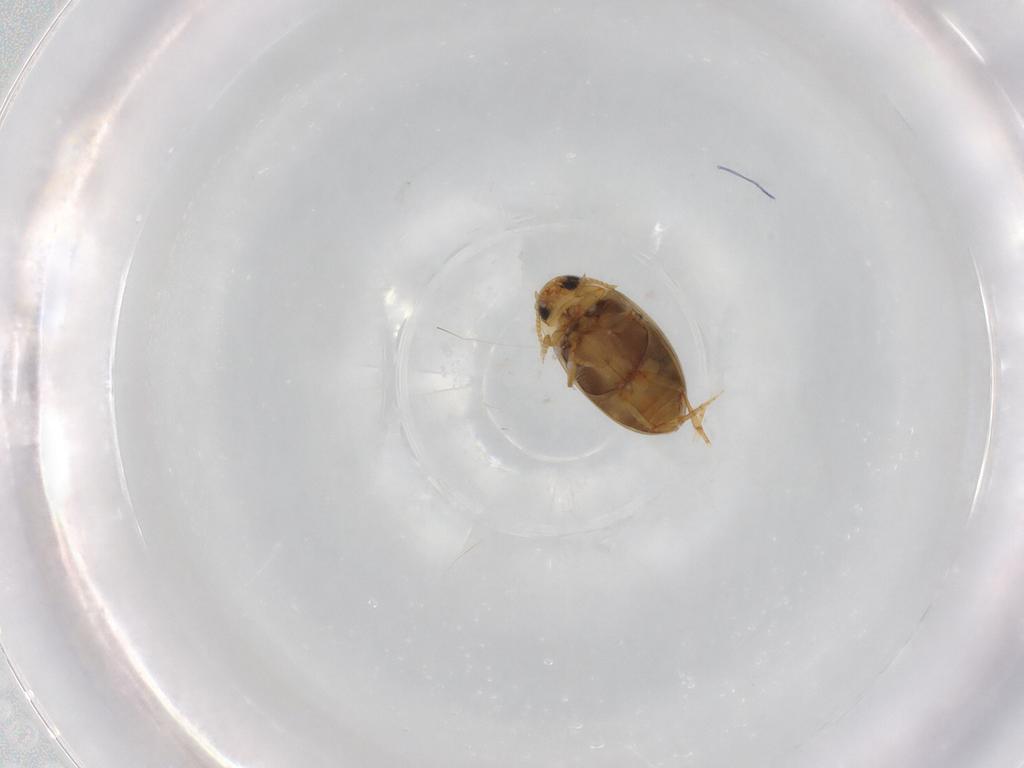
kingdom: Animalia
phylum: Arthropoda
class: Insecta
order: Coleoptera
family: Dytiscidae
